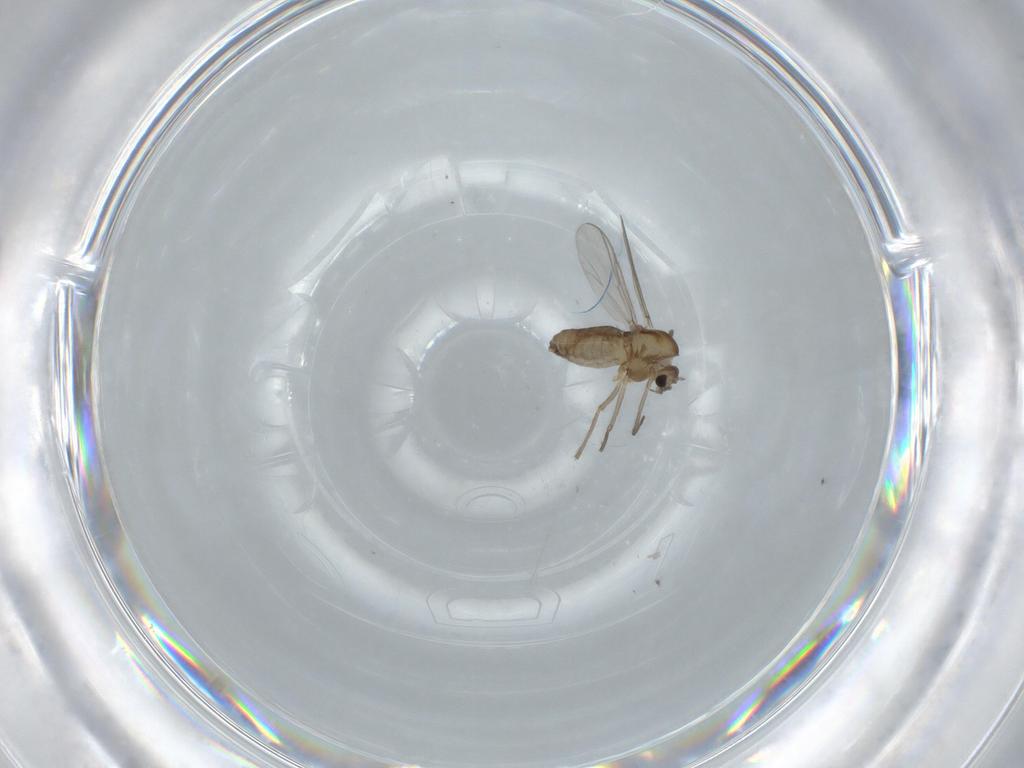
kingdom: Animalia
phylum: Arthropoda
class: Insecta
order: Diptera
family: Chironomidae
